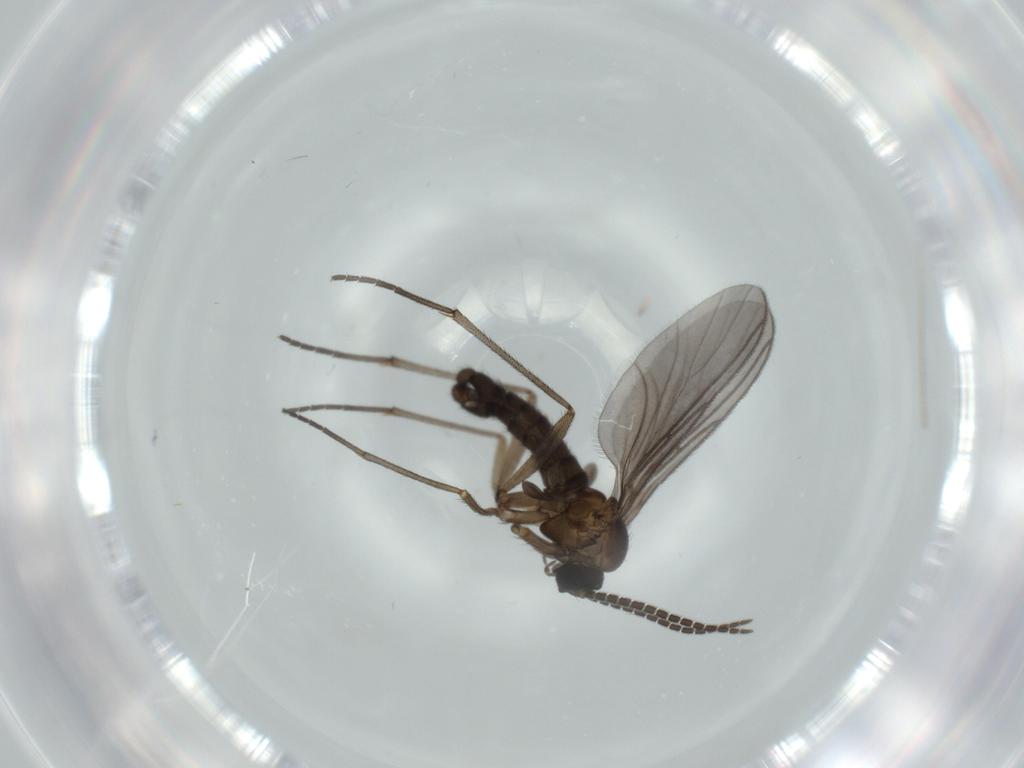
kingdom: Animalia
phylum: Arthropoda
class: Insecta
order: Diptera
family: Sciaridae
